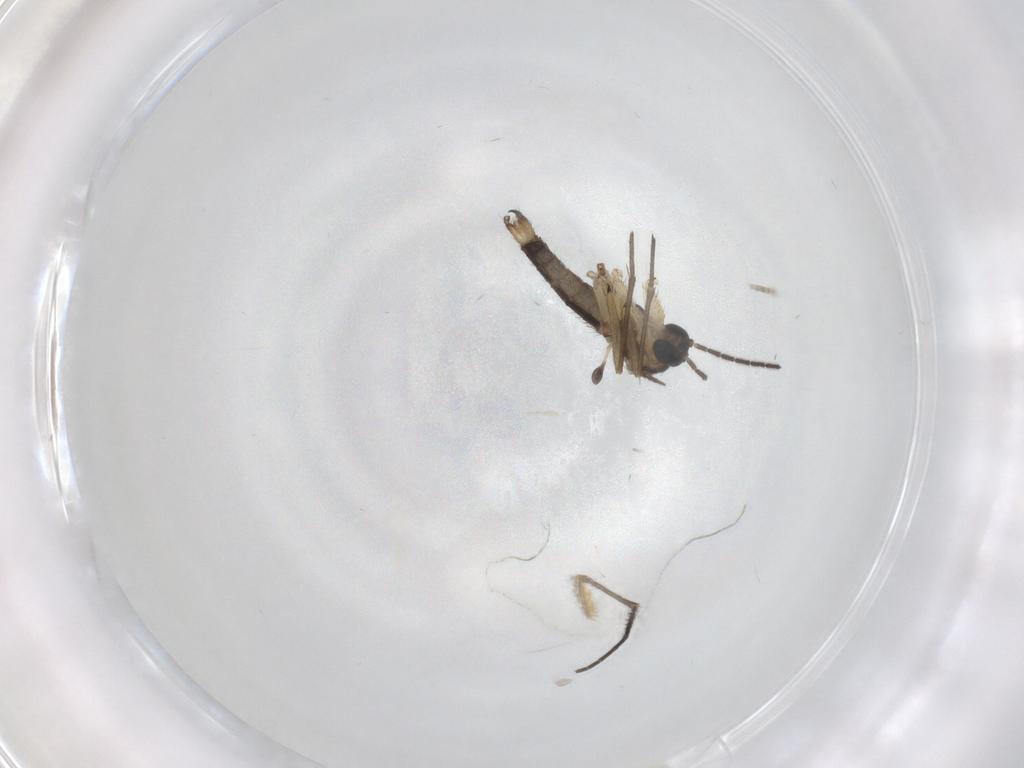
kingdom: Animalia
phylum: Arthropoda
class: Insecta
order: Diptera
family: Cecidomyiidae
